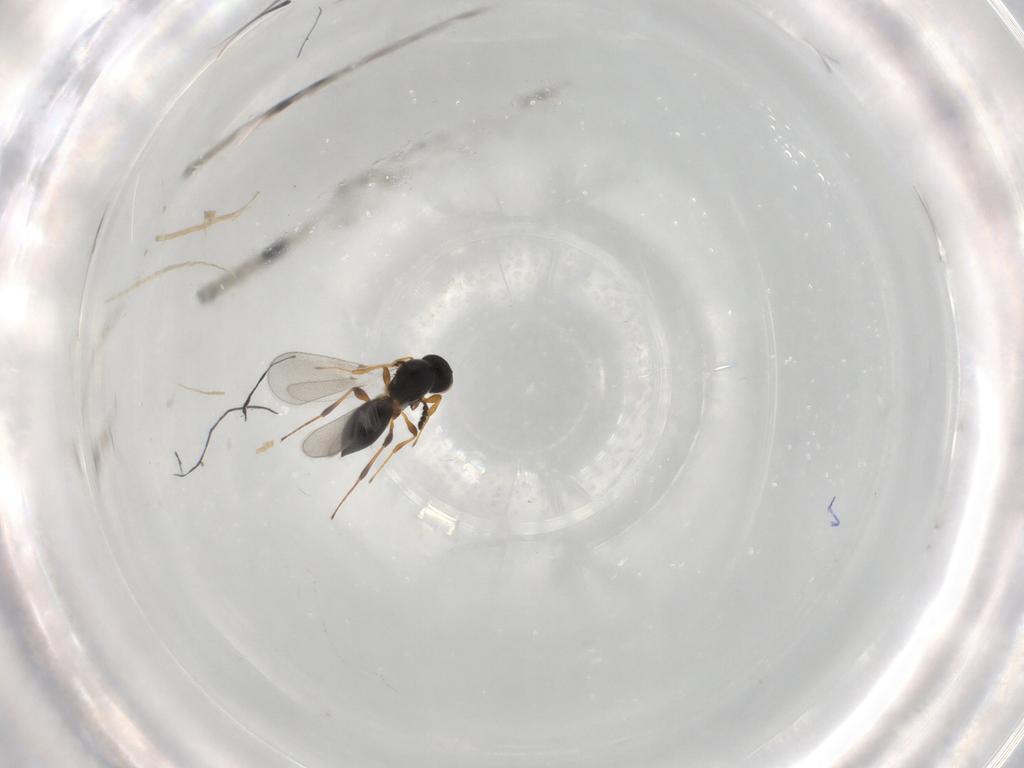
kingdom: Animalia
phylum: Arthropoda
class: Insecta
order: Hymenoptera
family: Platygastridae
